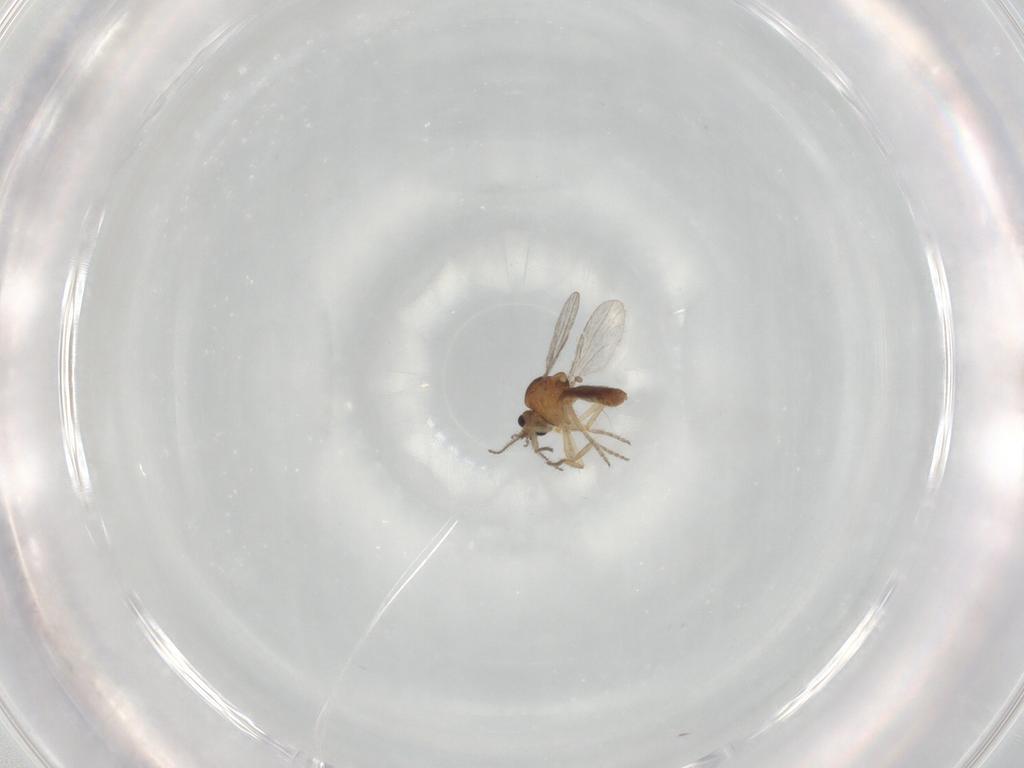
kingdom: Animalia
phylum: Arthropoda
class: Insecta
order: Diptera
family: Ceratopogonidae
